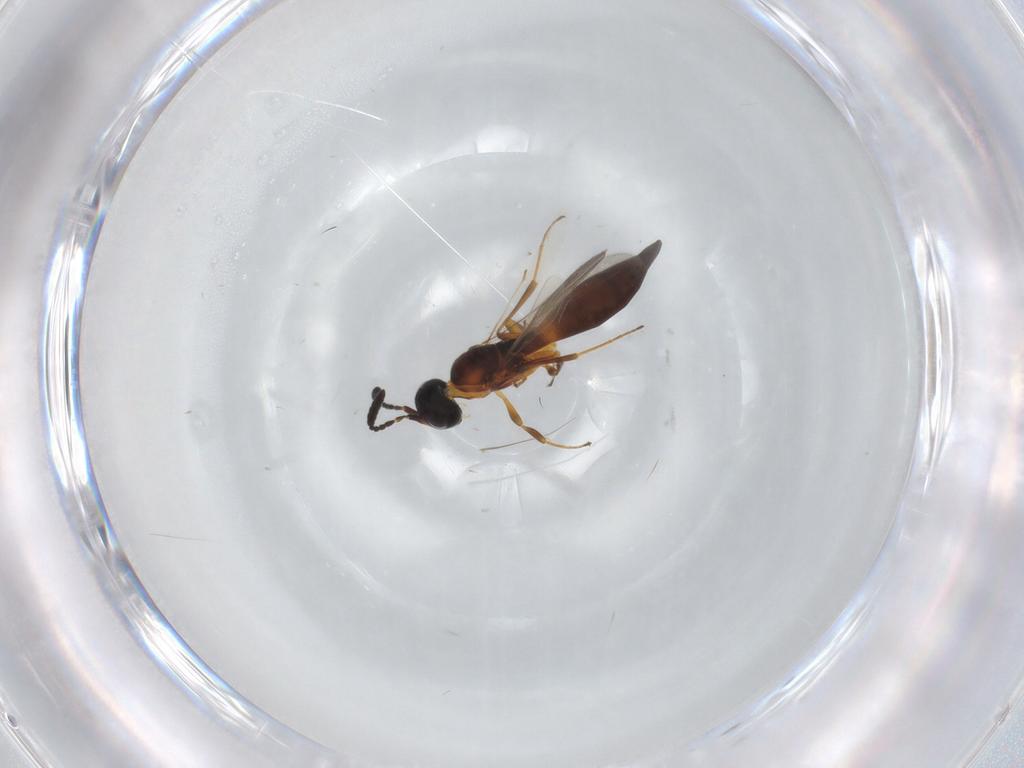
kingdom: Animalia
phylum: Arthropoda
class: Insecta
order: Hymenoptera
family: Scelionidae
